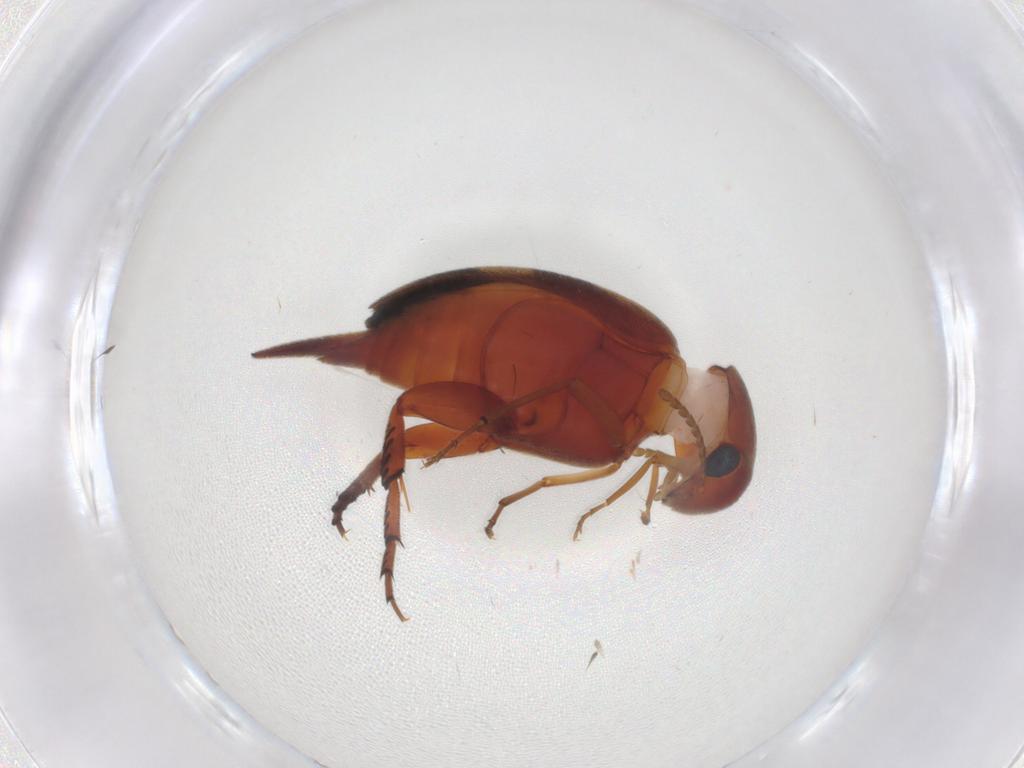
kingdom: Animalia
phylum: Arthropoda
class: Insecta
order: Coleoptera
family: Mordellidae
